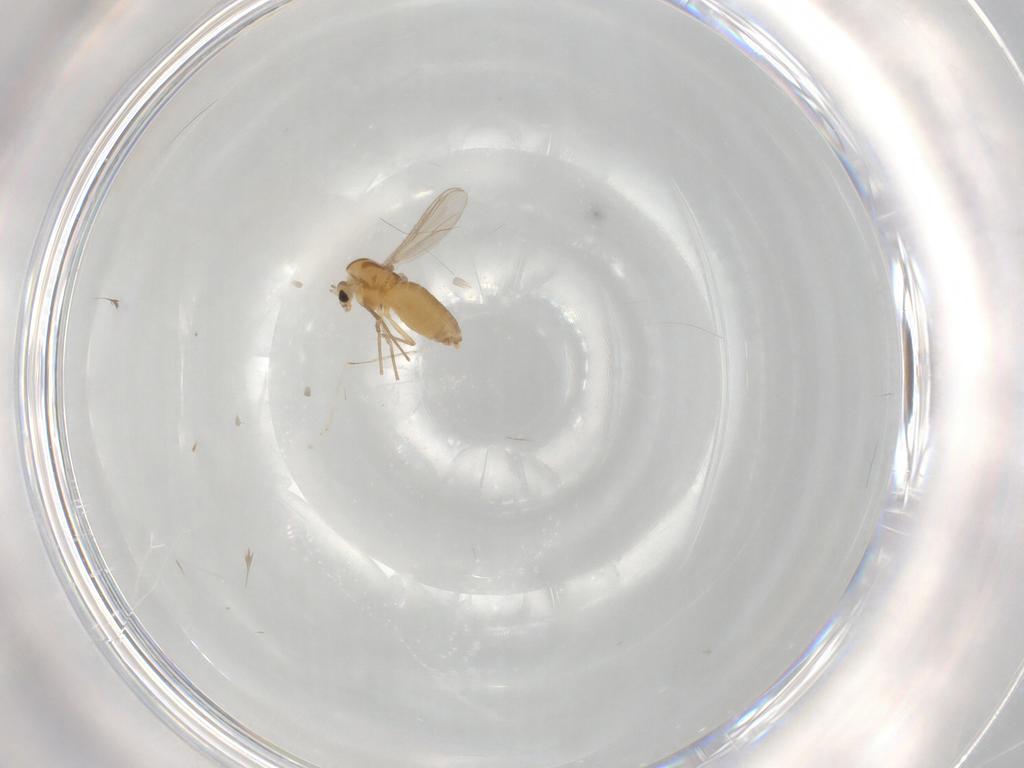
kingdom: Animalia
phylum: Arthropoda
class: Insecta
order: Diptera
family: Chironomidae
